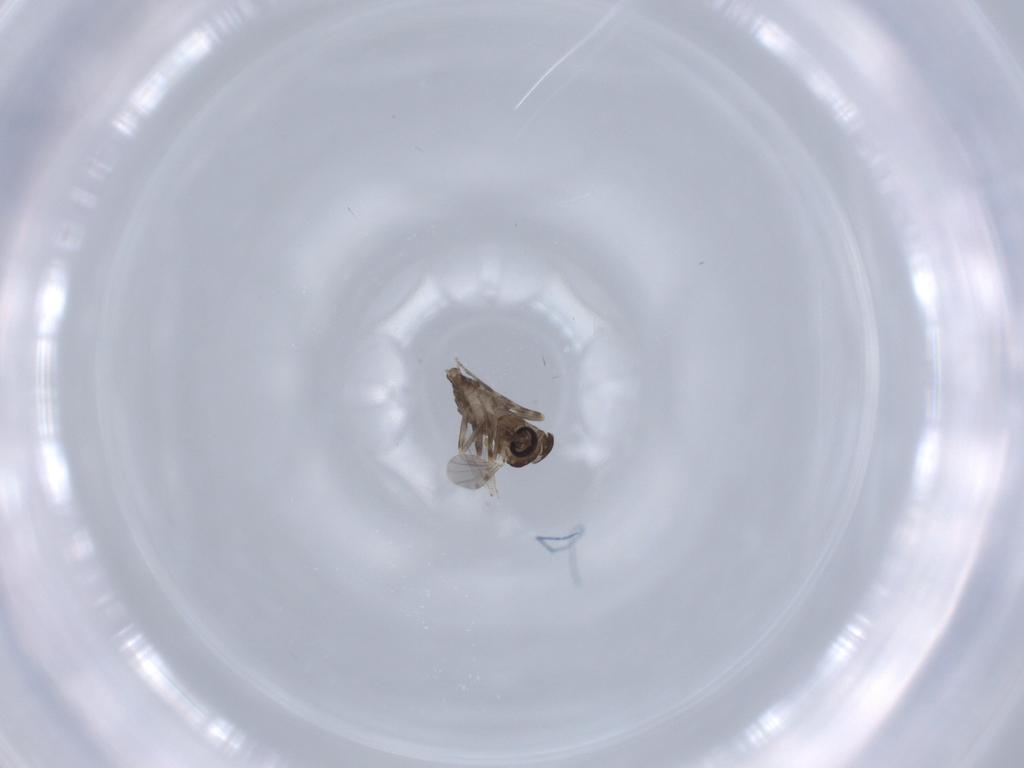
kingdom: Animalia
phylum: Arthropoda
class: Insecta
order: Diptera
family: Ceratopogonidae
